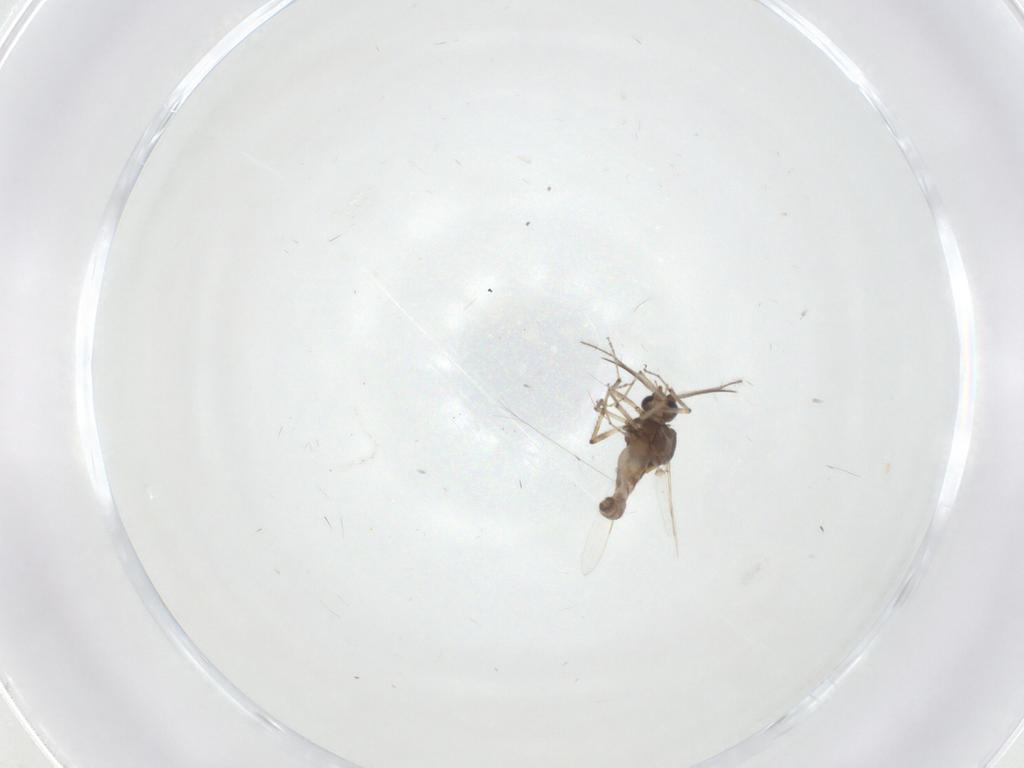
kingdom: Animalia
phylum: Arthropoda
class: Insecta
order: Diptera
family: Ceratopogonidae
